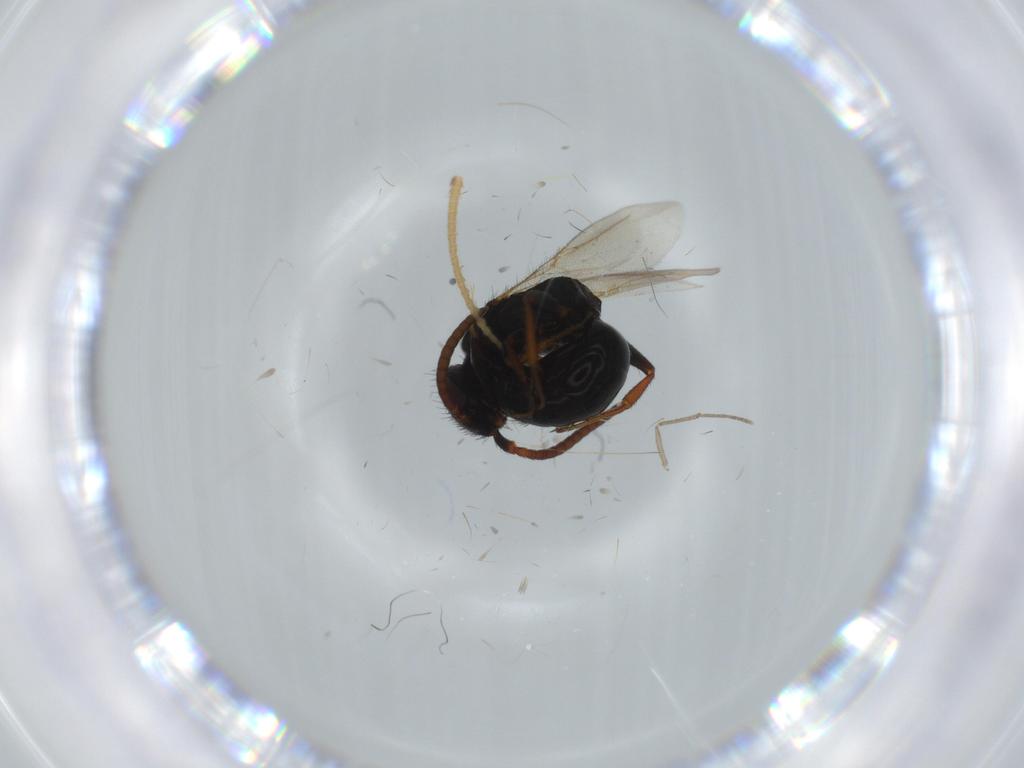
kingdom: Animalia
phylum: Arthropoda
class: Insecta
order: Hymenoptera
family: Bethylidae
